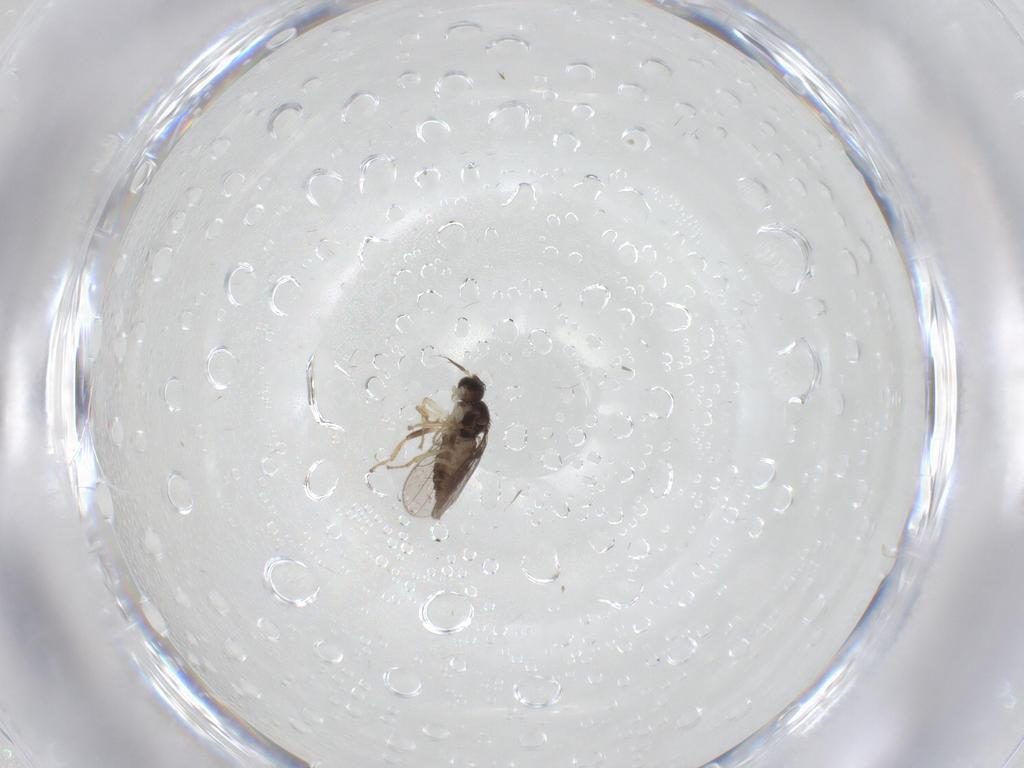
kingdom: Animalia
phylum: Arthropoda
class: Insecta
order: Diptera
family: Hybotidae
